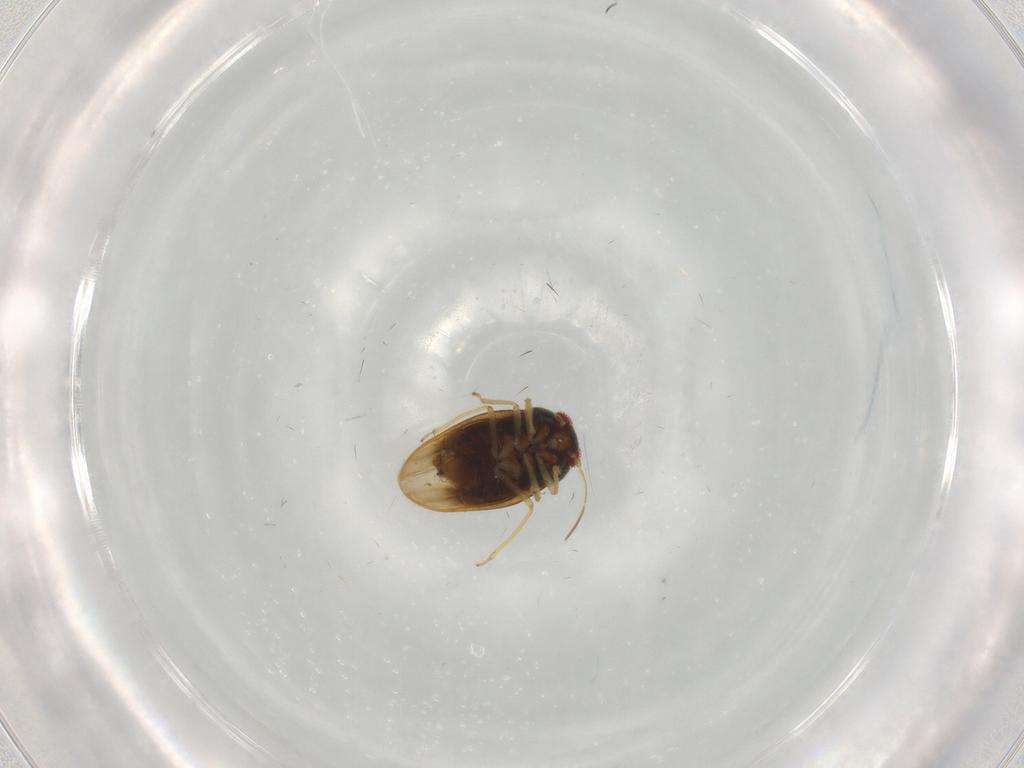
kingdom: Animalia
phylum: Arthropoda
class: Insecta
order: Hemiptera
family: Schizopteridae
